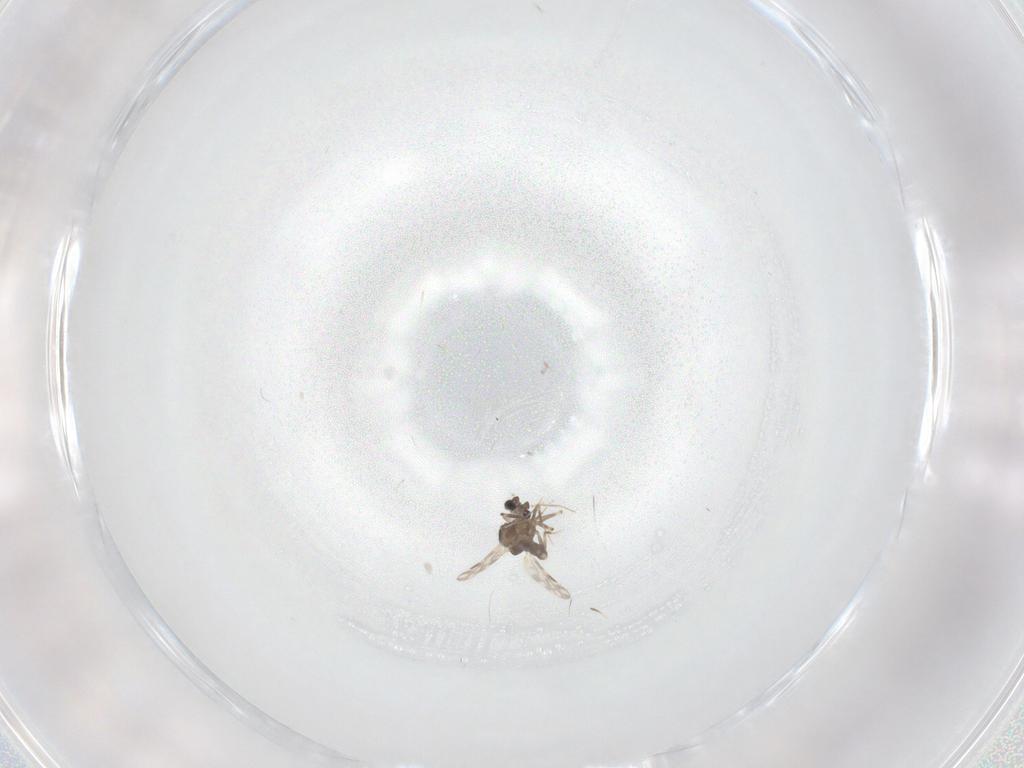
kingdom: Animalia
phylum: Arthropoda
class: Insecta
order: Diptera
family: Ceratopogonidae
